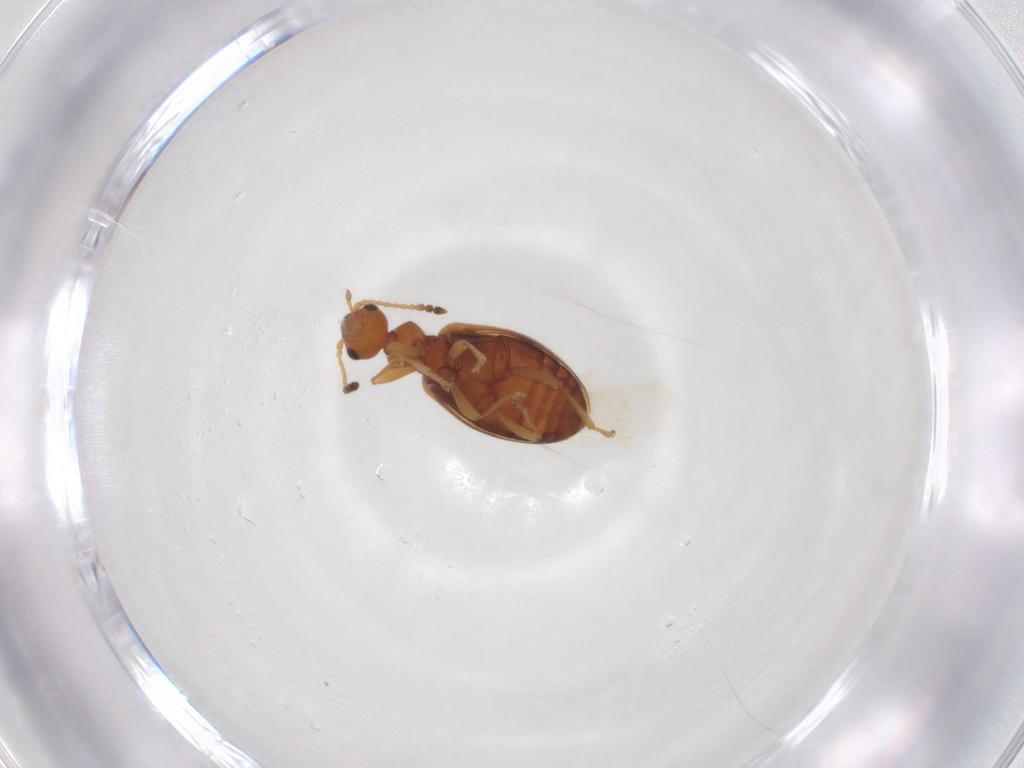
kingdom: Animalia
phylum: Arthropoda
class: Insecta
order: Coleoptera
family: Anthicidae
